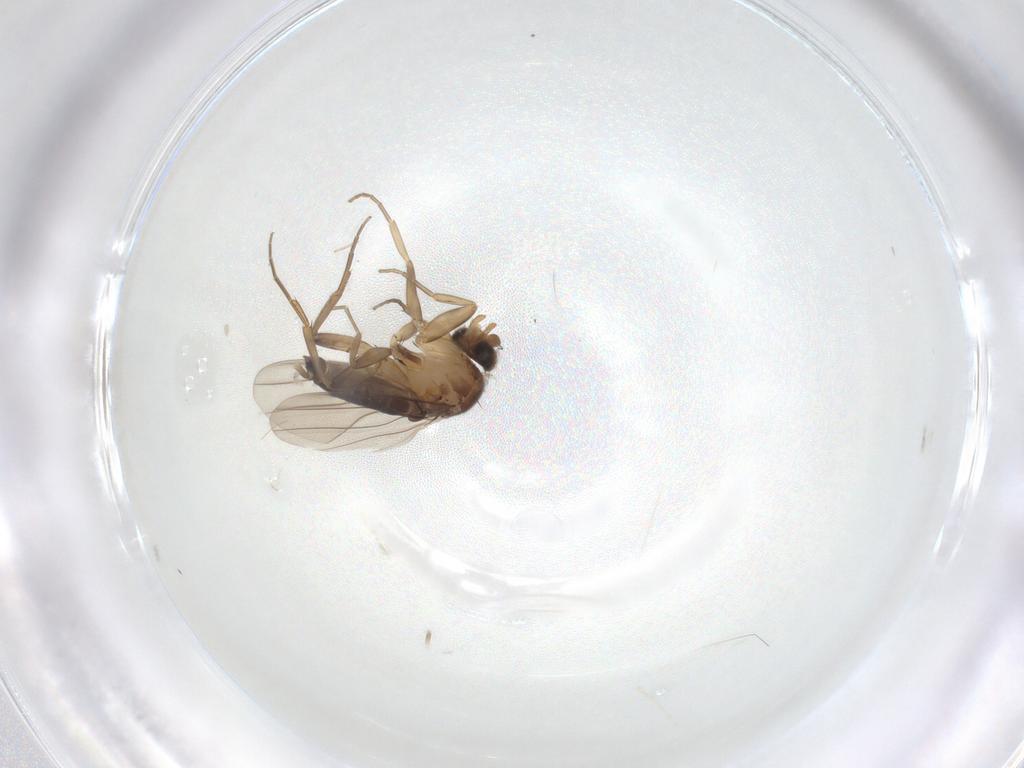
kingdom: Animalia
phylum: Arthropoda
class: Insecta
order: Diptera
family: Phoridae
